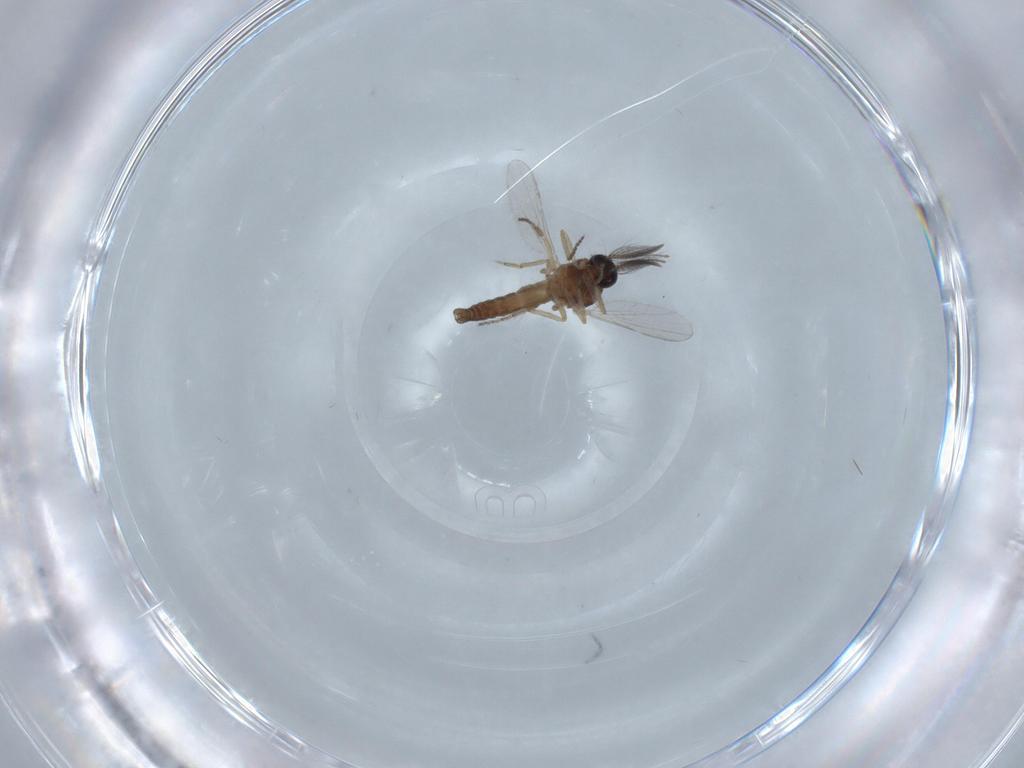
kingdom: Animalia
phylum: Arthropoda
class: Insecta
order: Diptera
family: Ceratopogonidae
